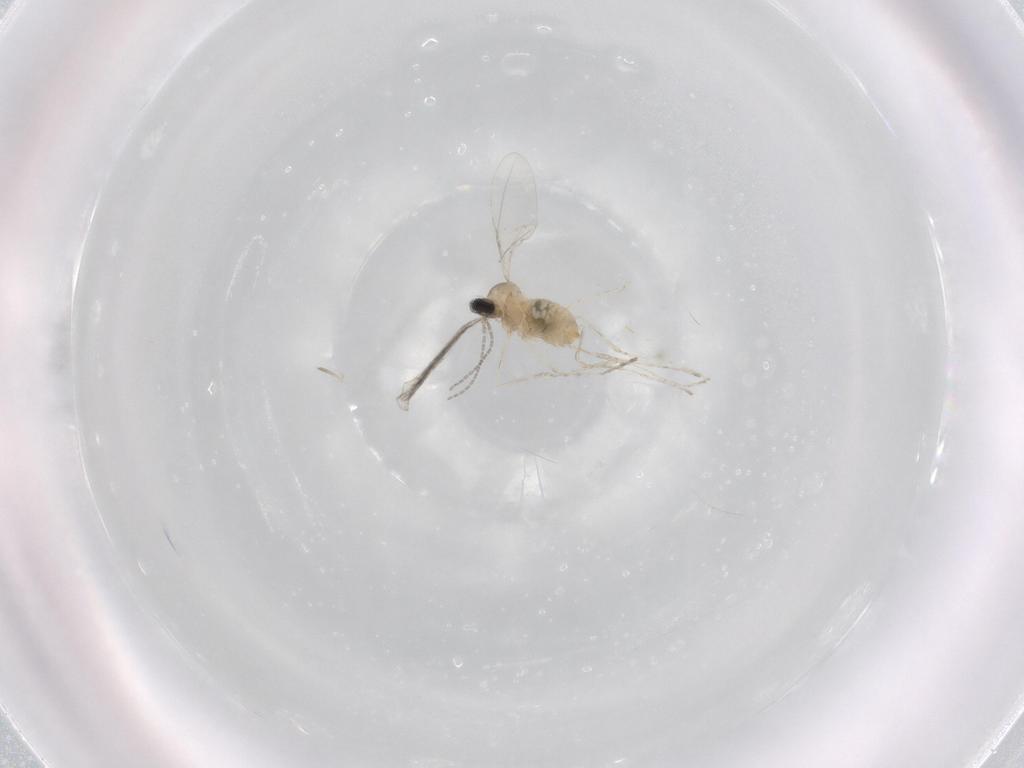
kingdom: Animalia
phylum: Arthropoda
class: Insecta
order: Diptera
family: Cecidomyiidae
